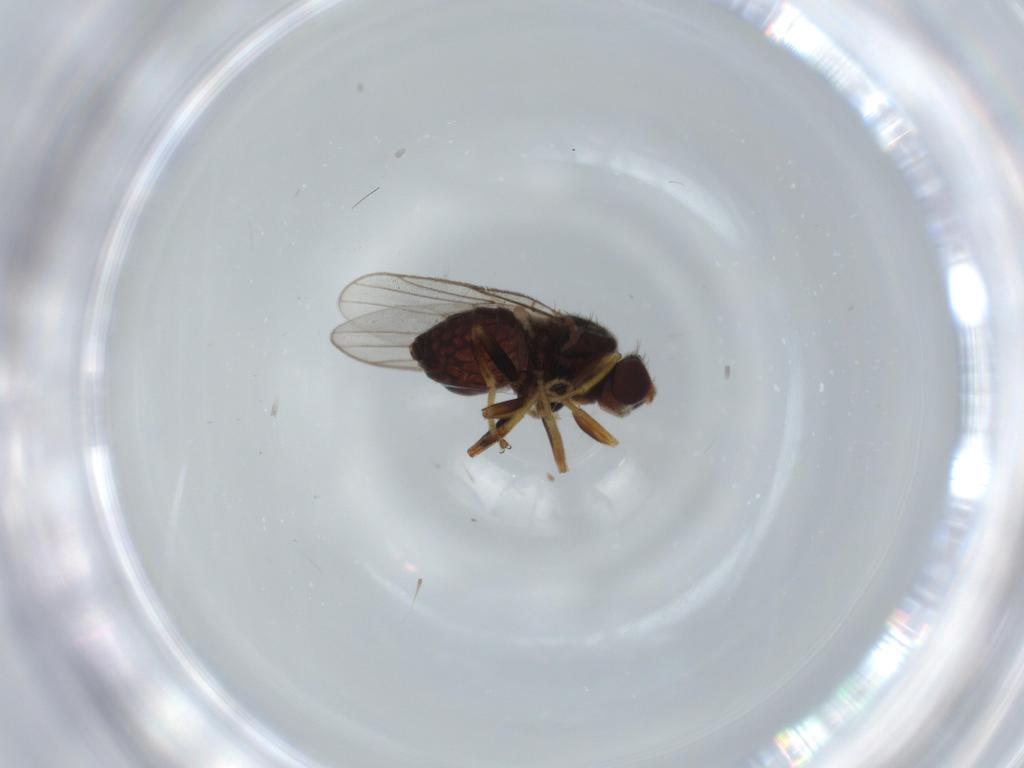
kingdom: Animalia
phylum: Arthropoda
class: Insecta
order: Diptera
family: Chloropidae
